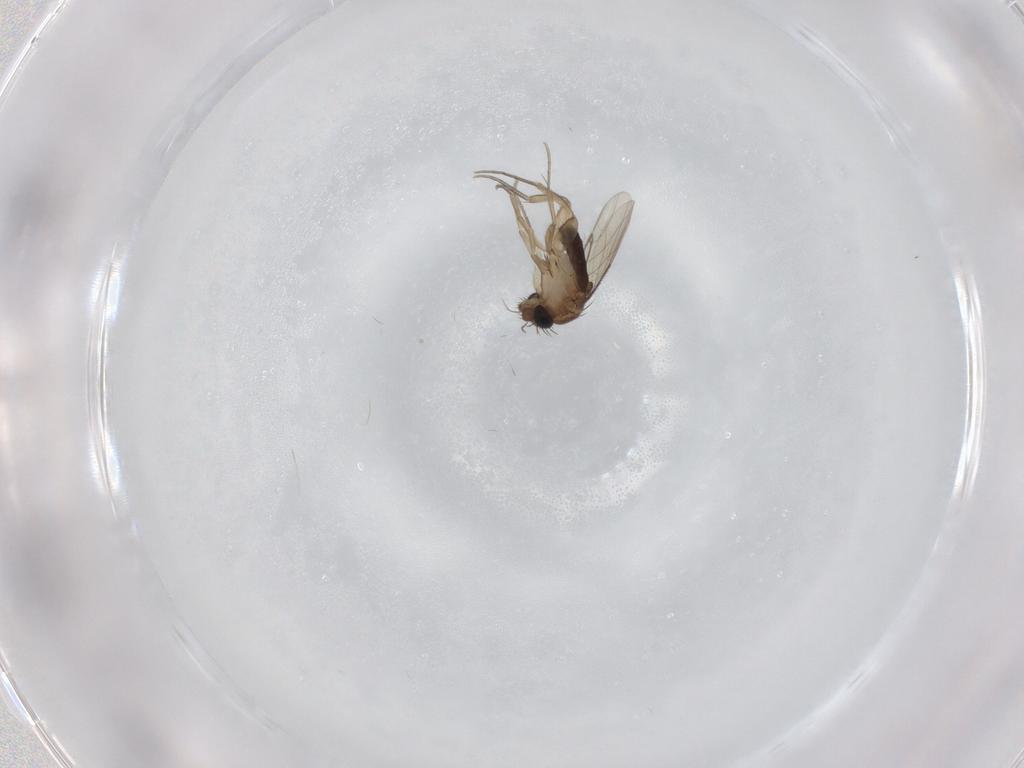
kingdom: Animalia
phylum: Arthropoda
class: Insecta
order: Diptera
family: Phoridae
